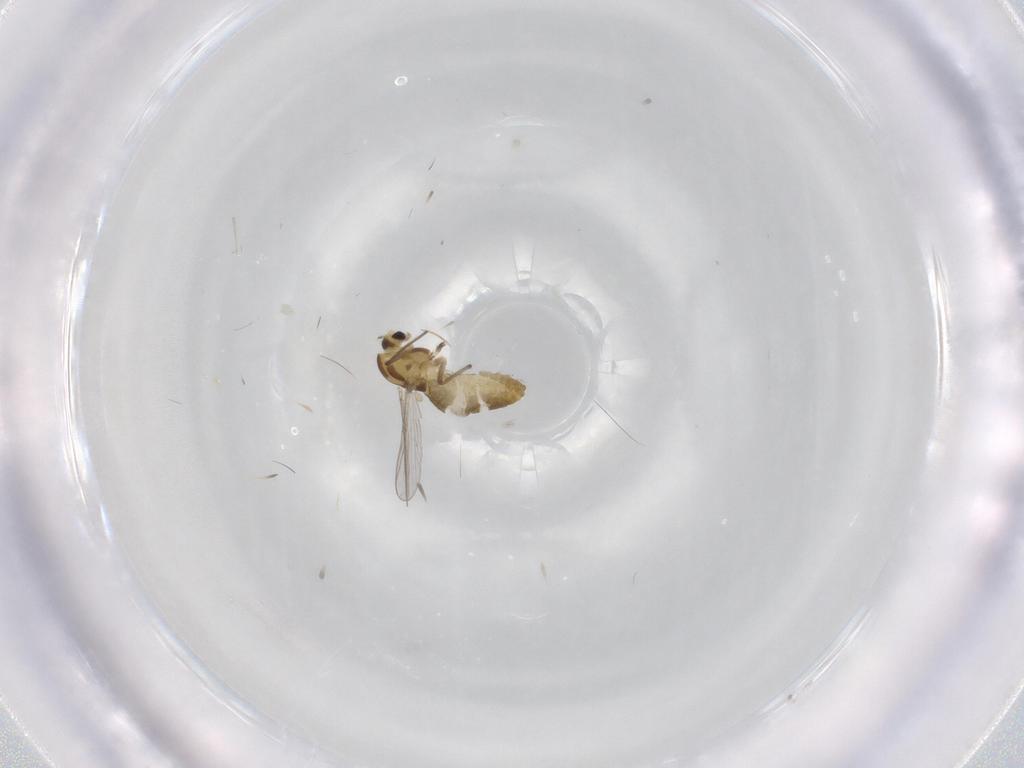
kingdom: Animalia
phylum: Arthropoda
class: Insecta
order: Diptera
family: Chironomidae
